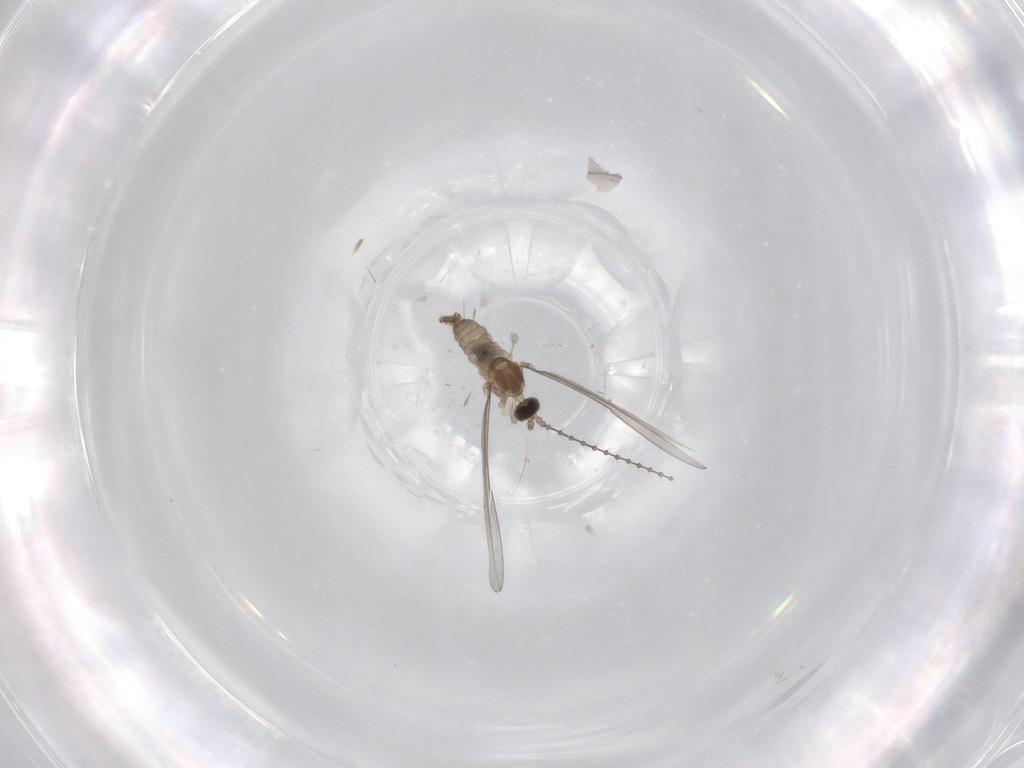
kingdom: Animalia
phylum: Arthropoda
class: Insecta
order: Diptera
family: Cecidomyiidae
